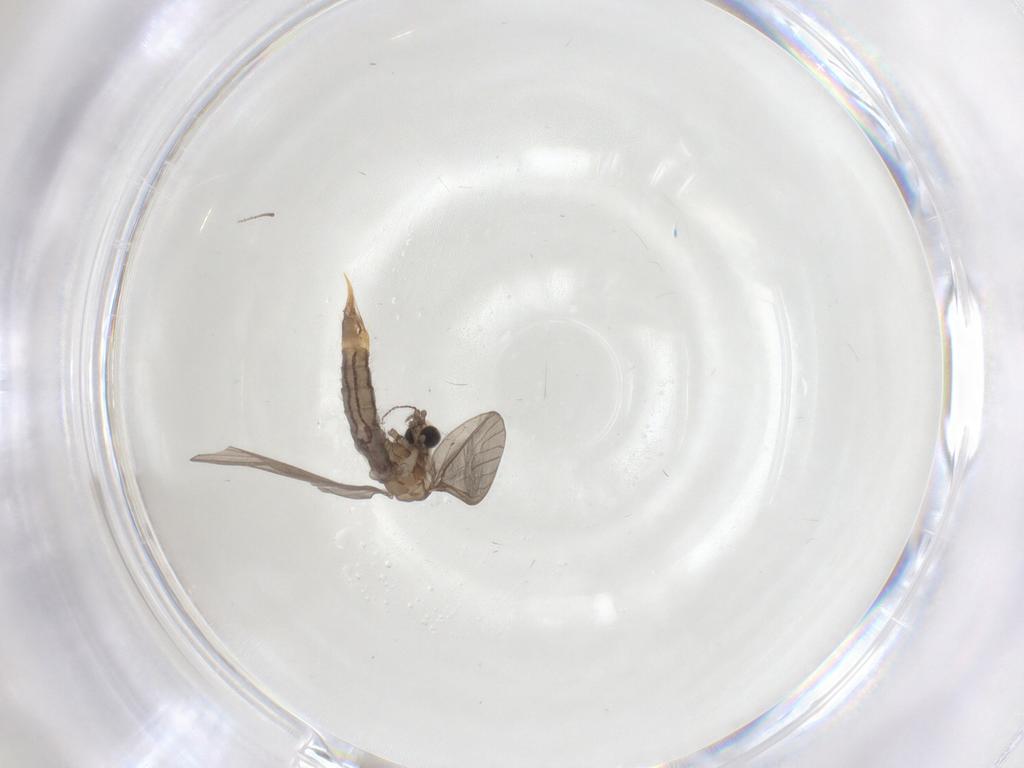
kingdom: Animalia
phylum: Arthropoda
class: Insecta
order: Diptera
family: Limoniidae
